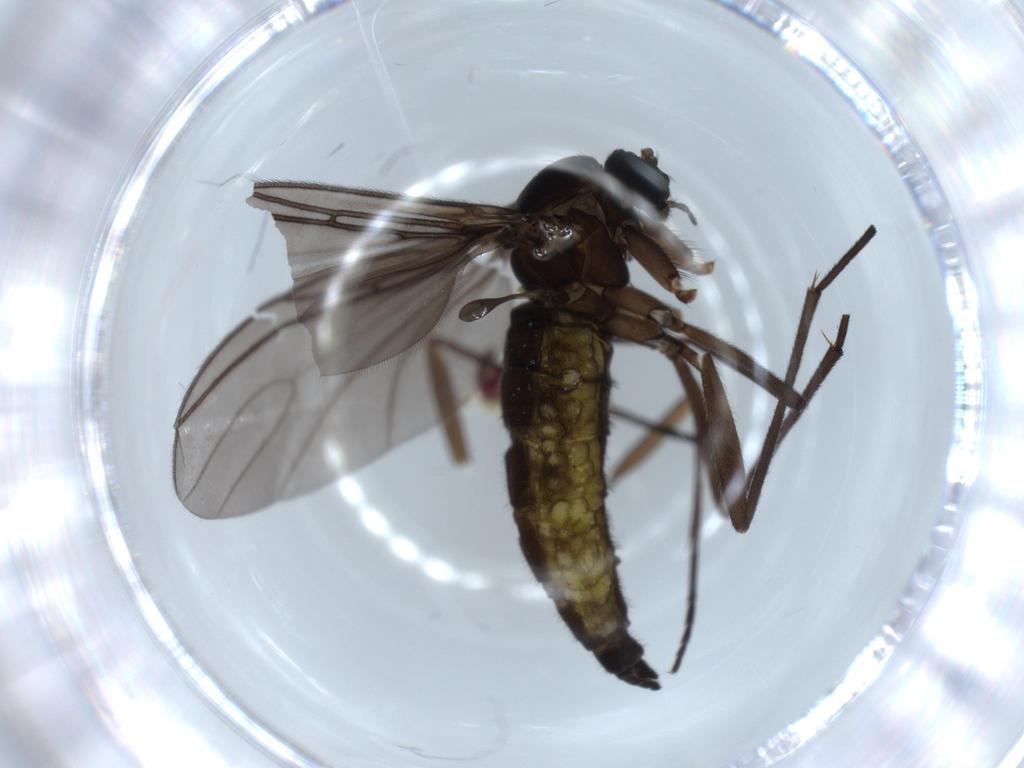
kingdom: Animalia
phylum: Arthropoda
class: Insecta
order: Diptera
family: Sciaridae
